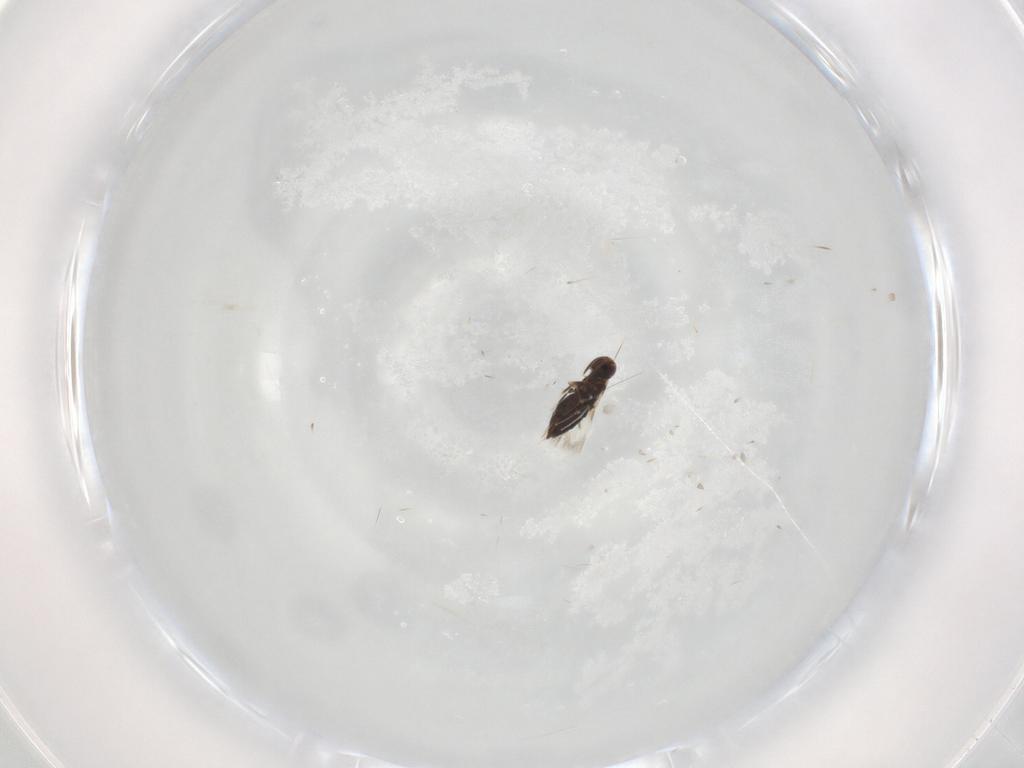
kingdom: Animalia
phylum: Arthropoda
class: Insecta
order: Hymenoptera
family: Signiphoridae
